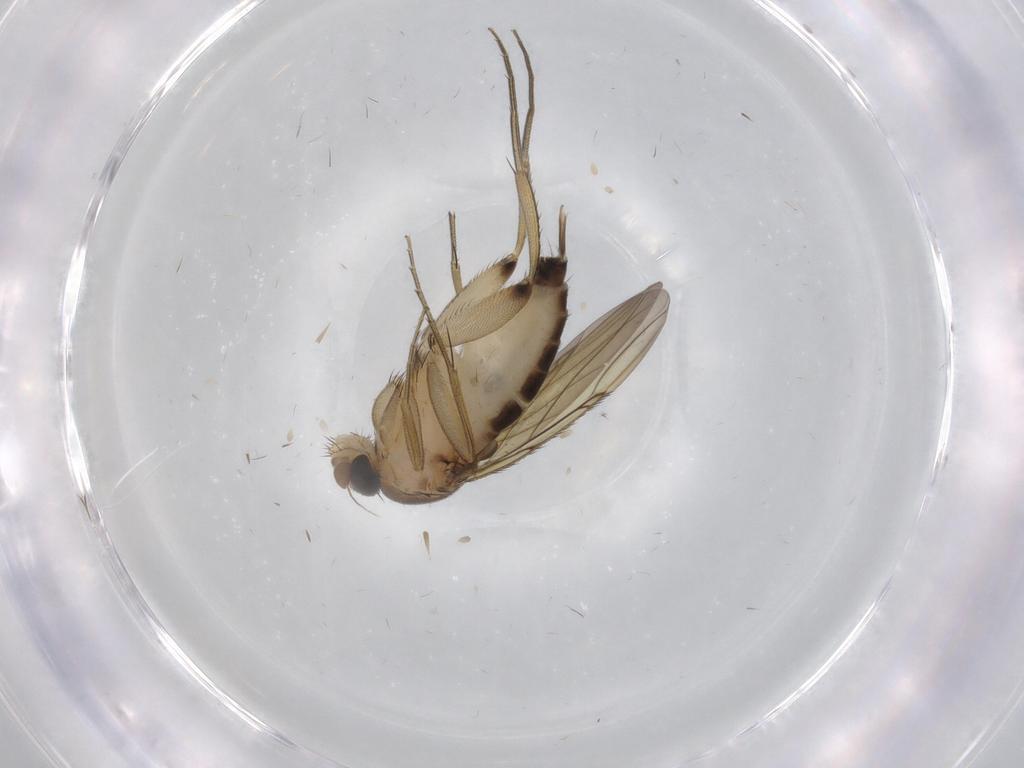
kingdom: Animalia
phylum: Arthropoda
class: Insecta
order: Diptera
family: Phoridae
